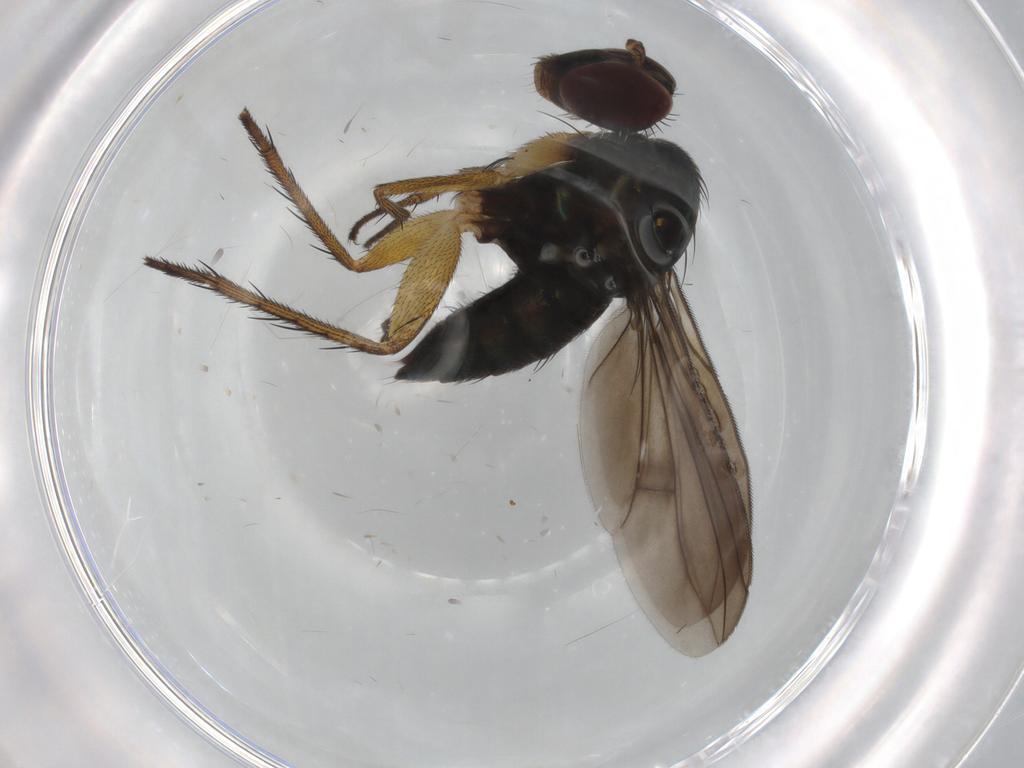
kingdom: Animalia
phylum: Arthropoda
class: Insecta
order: Diptera
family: Dolichopodidae
